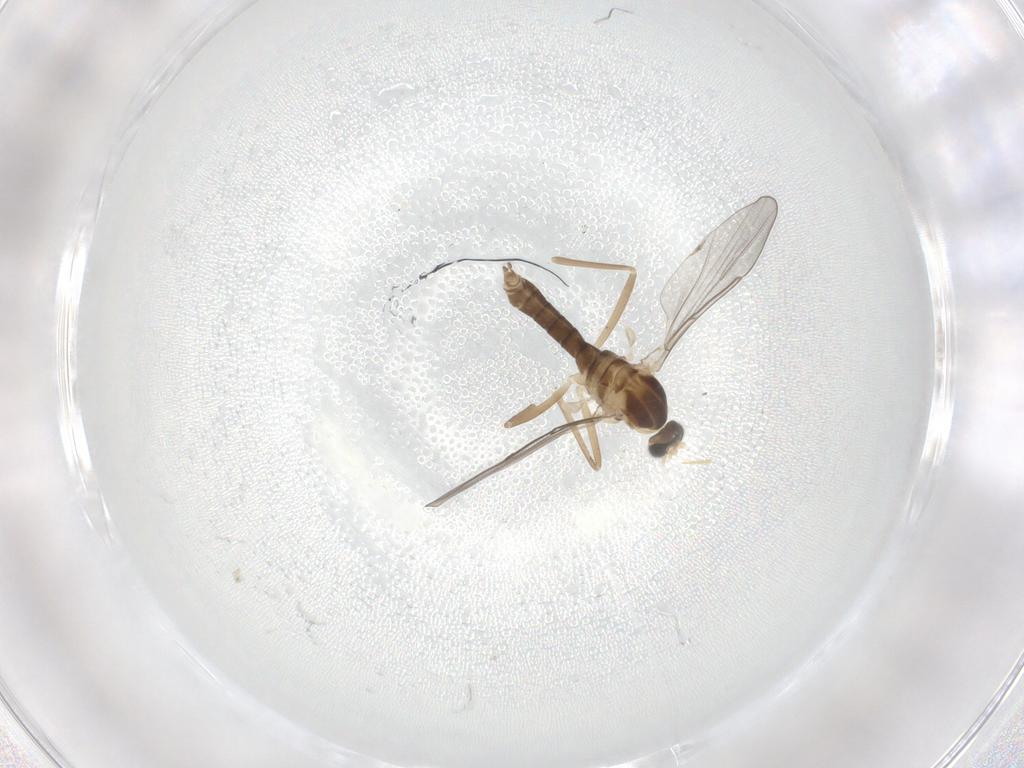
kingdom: Animalia
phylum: Arthropoda
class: Insecta
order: Diptera
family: Cecidomyiidae
